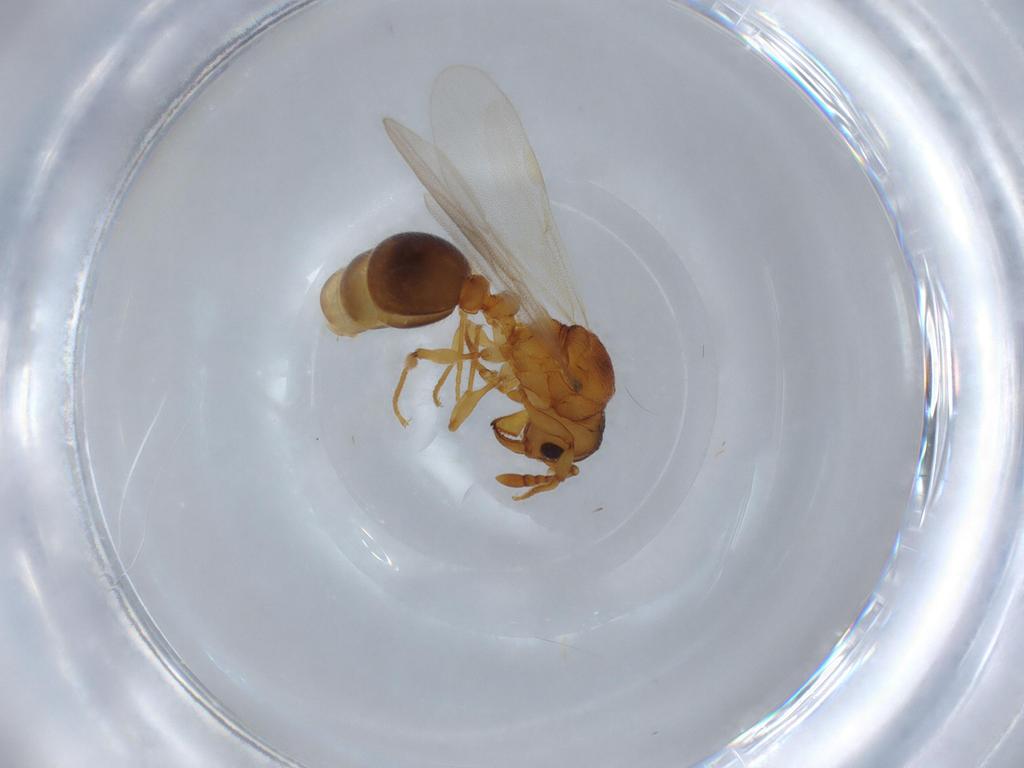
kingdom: Animalia
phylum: Arthropoda
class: Insecta
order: Hymenoptera
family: Formicidae
